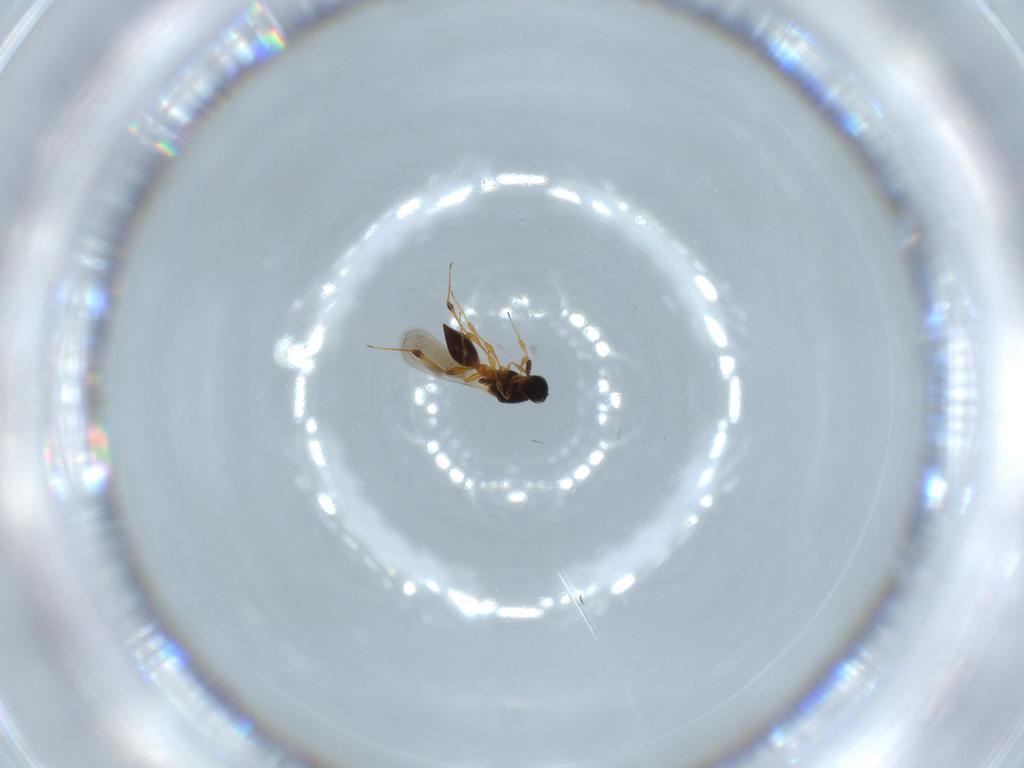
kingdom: Animalia
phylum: Arthropoda
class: Insecta
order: Hymenoptera
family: Platygastridae
